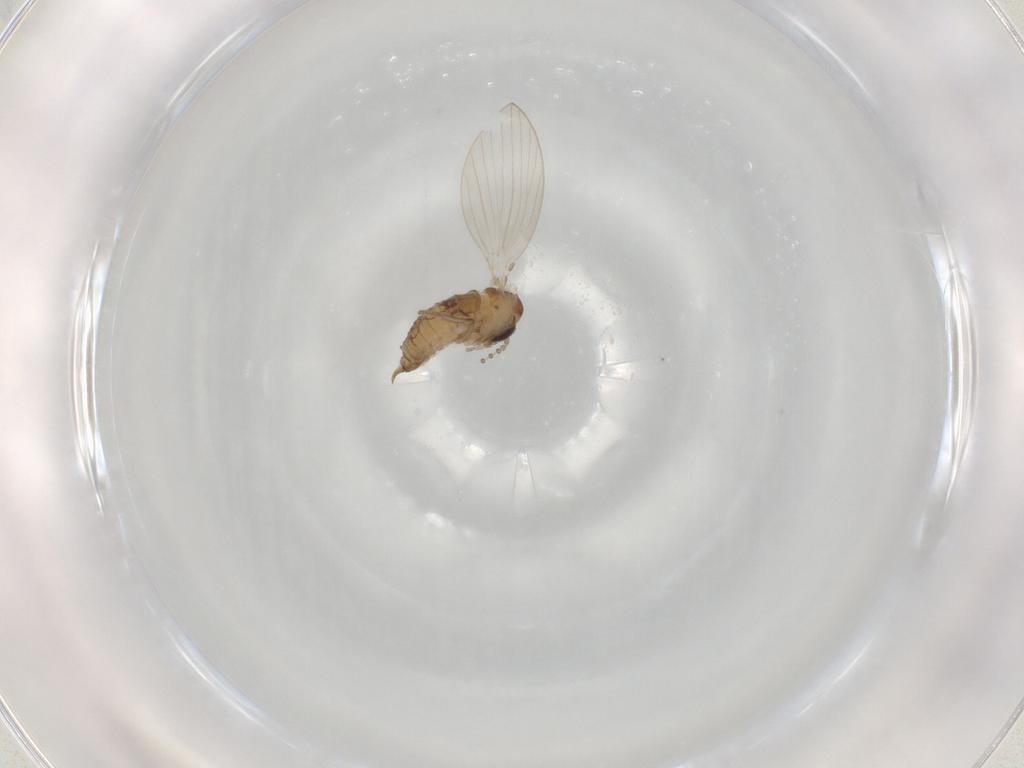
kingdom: Animalia
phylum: Arthropoda
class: Insecta
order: Diptera
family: Psychodidae
